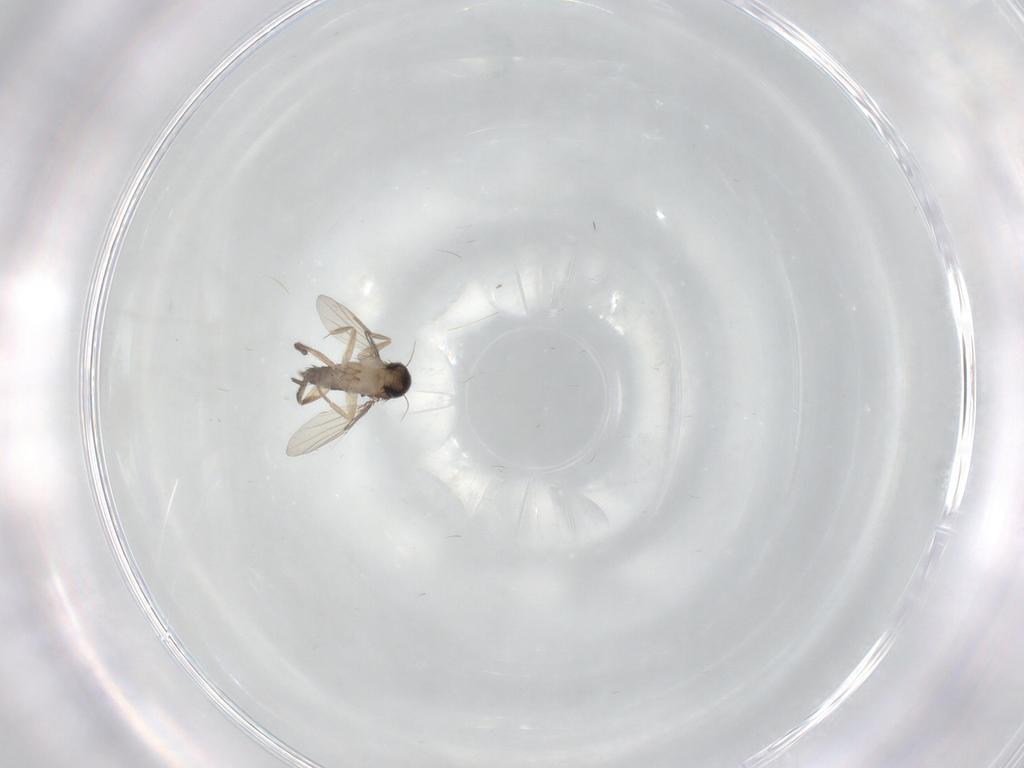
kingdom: Animalia
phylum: Arthropoda
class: Insecta
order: Diptera
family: Phoridae
